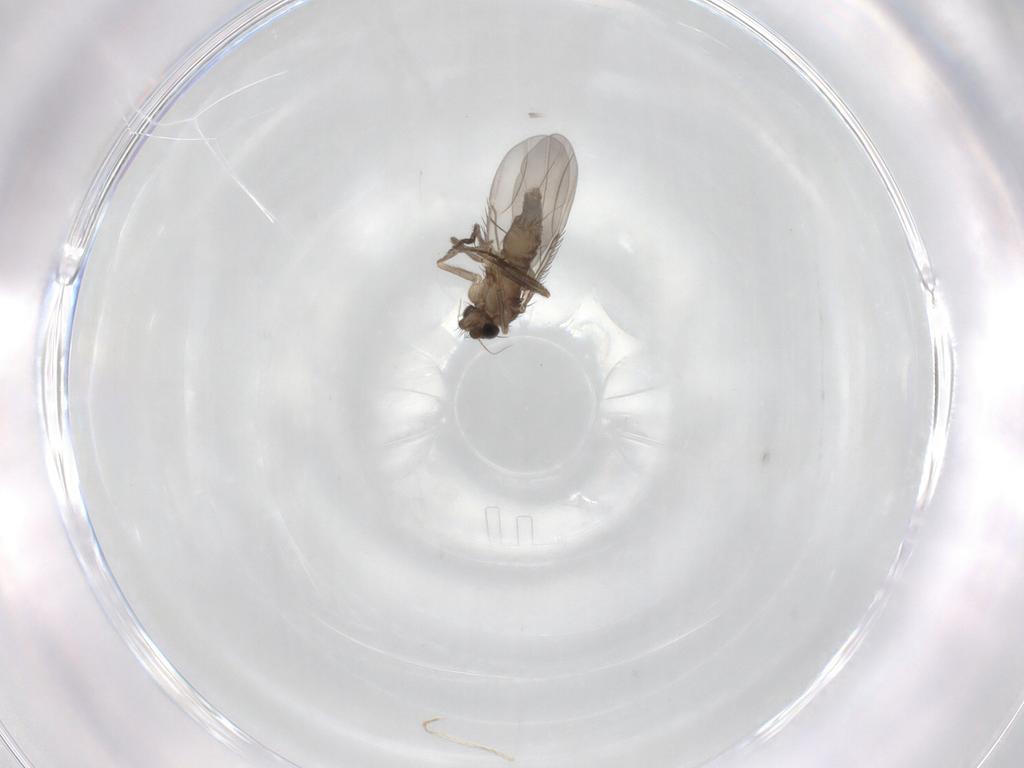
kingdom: Animalia
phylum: Arthropoda
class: Insecta
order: Diptera
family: Phoridae
